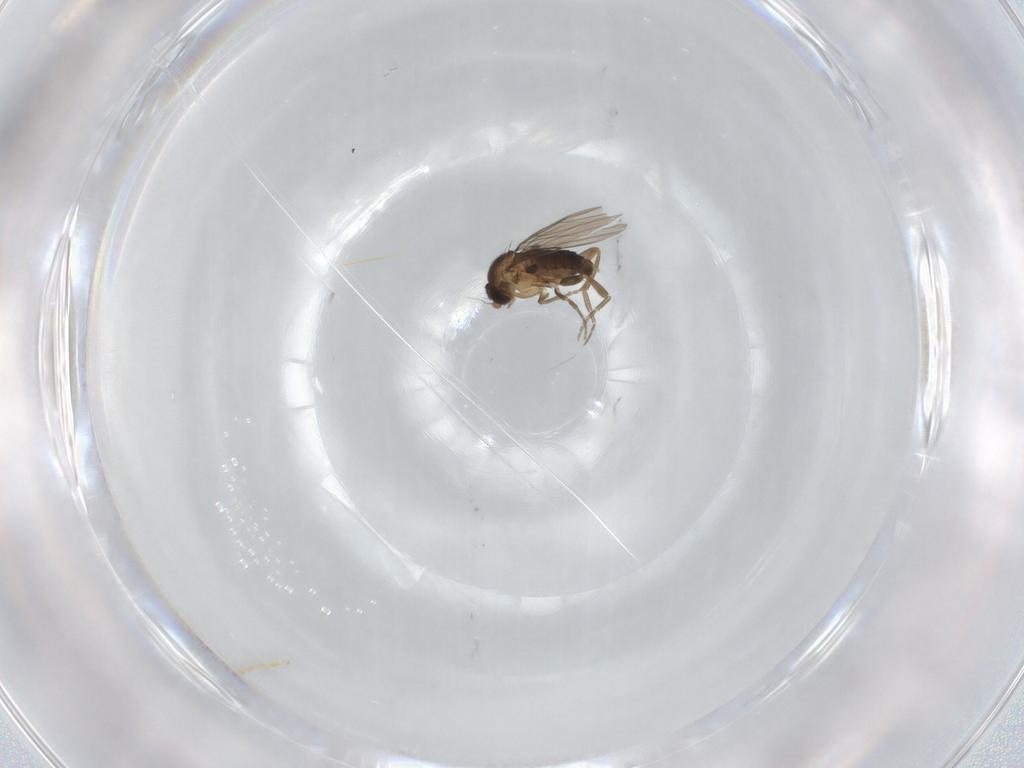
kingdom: Animalia
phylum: Arthropoda
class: Insecta
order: Diptera
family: Phoridae
